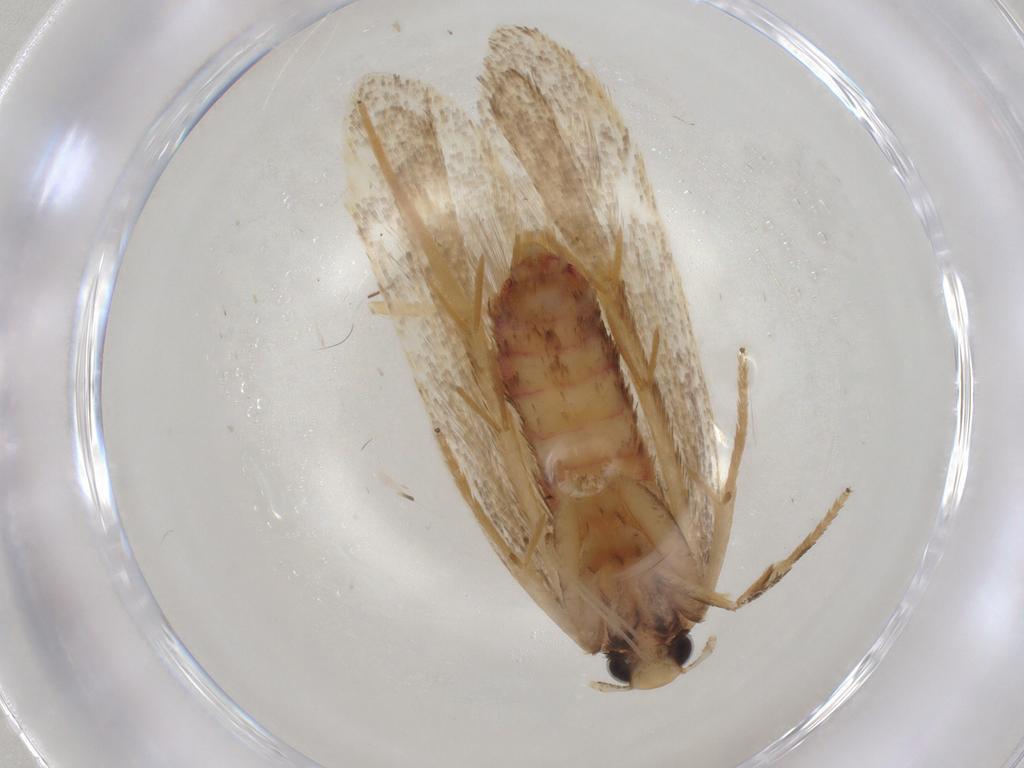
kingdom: Animalia
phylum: Arthropoda
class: Insecta
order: Lepidoptera
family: Lecithoceridae
